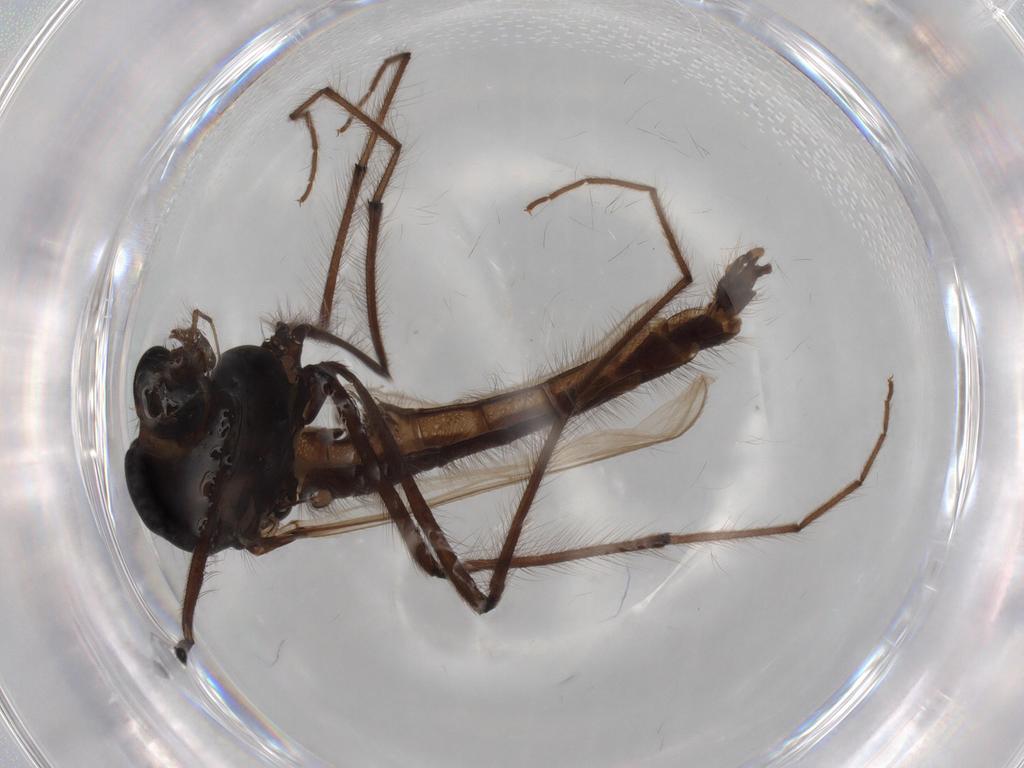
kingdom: Animalia
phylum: Arthropoda
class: Insecta
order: Diptera
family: Chironomidae
